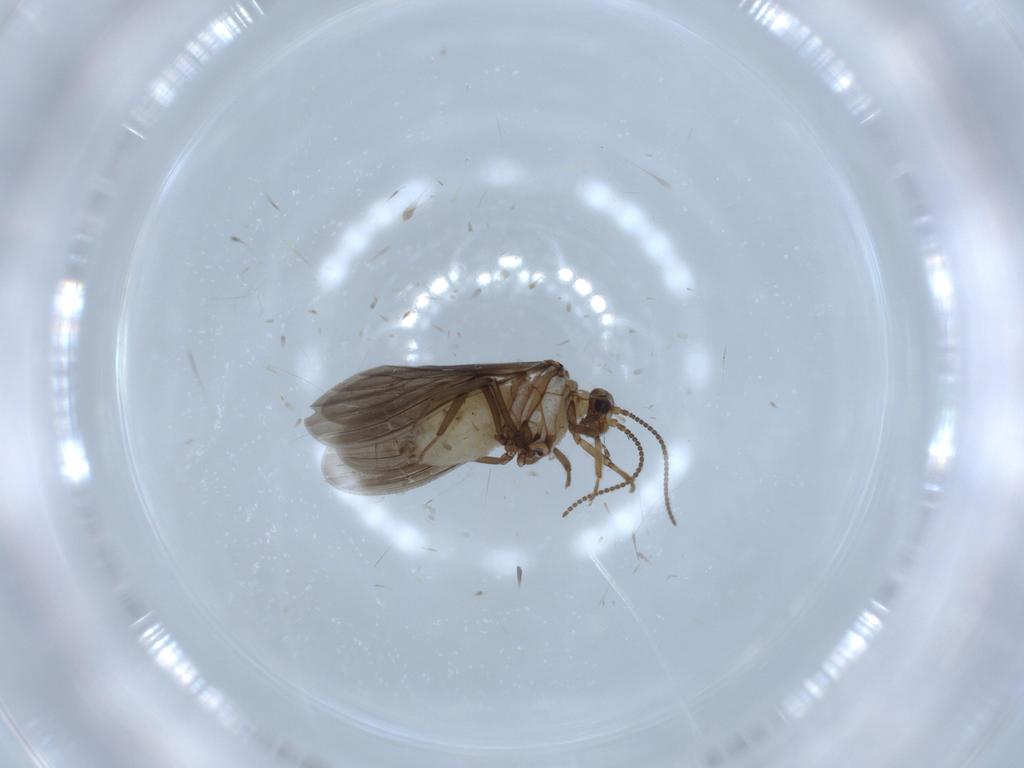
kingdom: Animalia
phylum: Arthropoda
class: Insecta
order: Neuroptera
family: Coniopterygidae
